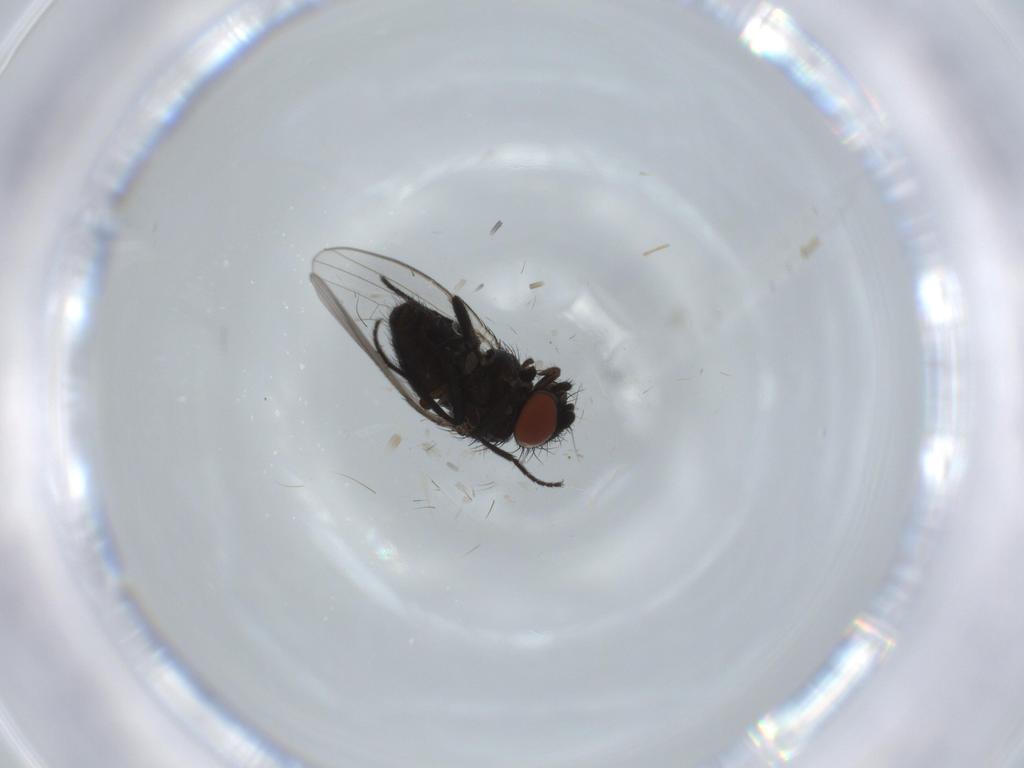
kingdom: Animalia
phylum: Arthropoda
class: Insecta
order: Diptera
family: Milichiidae
